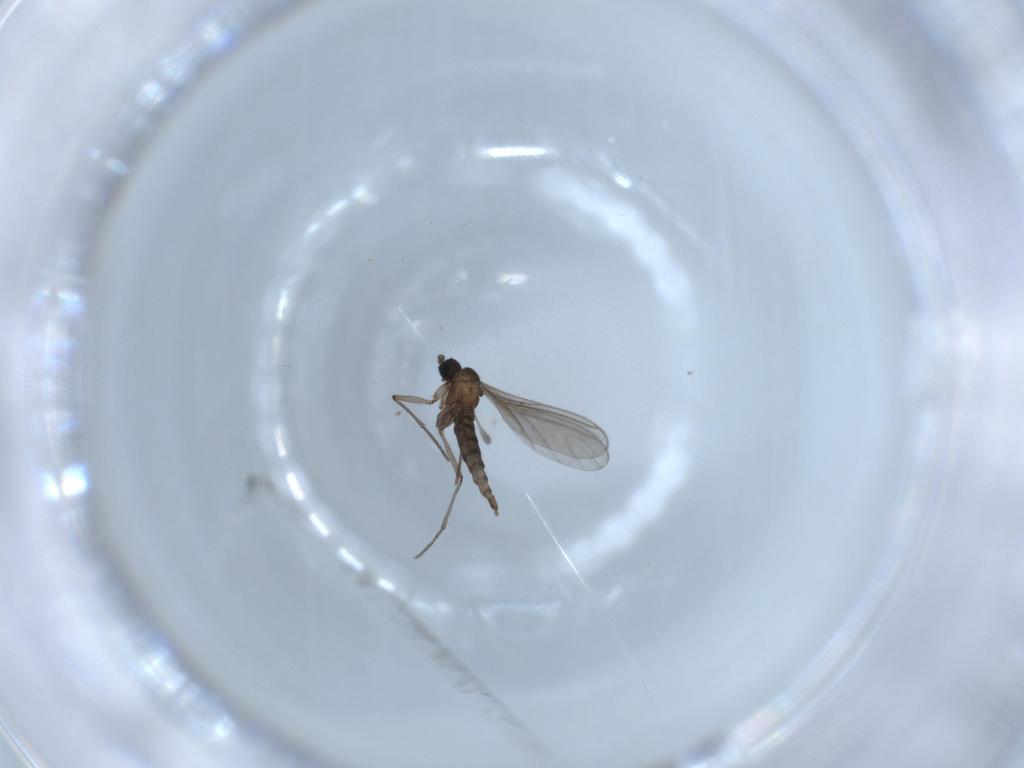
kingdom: Animalia
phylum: Arthropoda
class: Insecta
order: Diptera
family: Sciaridae
